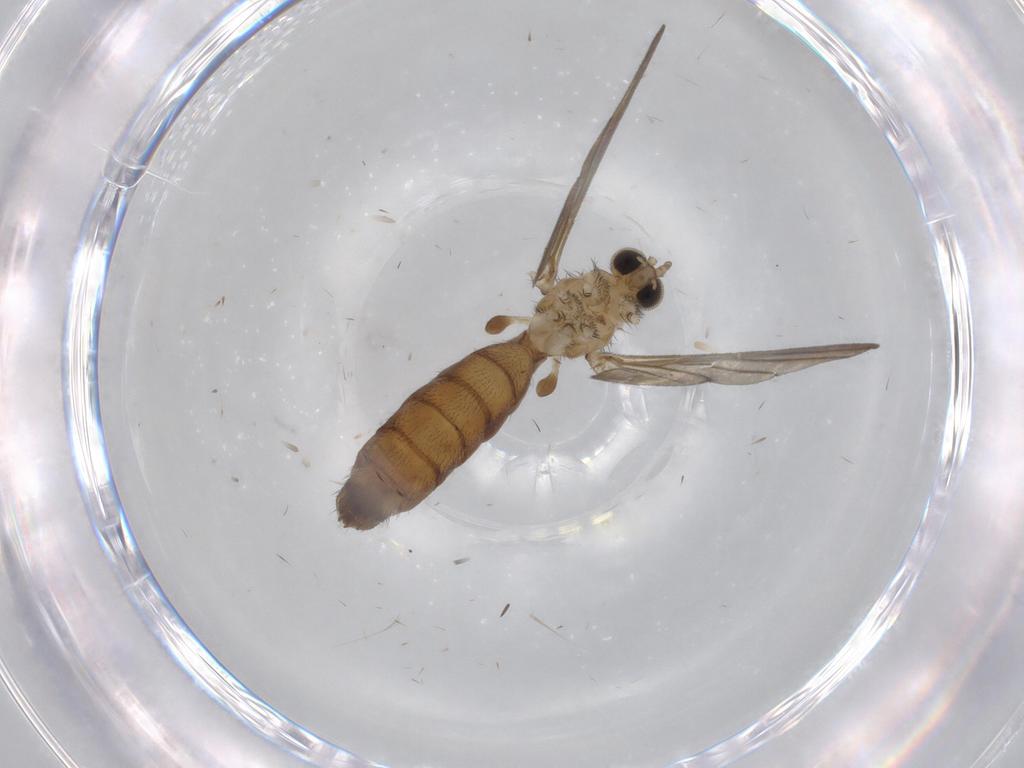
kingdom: Animalia
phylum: Arthropoda
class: Insecta
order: Diptera
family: Keroplatidae
